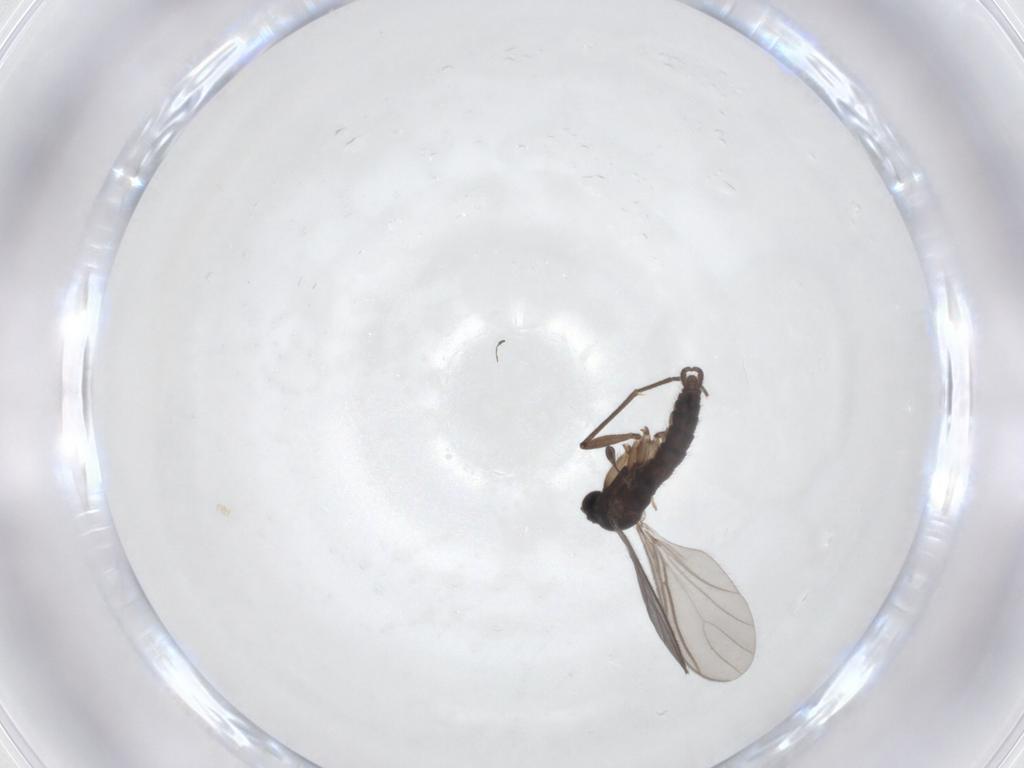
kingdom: Animalia
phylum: Arthropoda
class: Insecta
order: Diptera
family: Sciaridae
